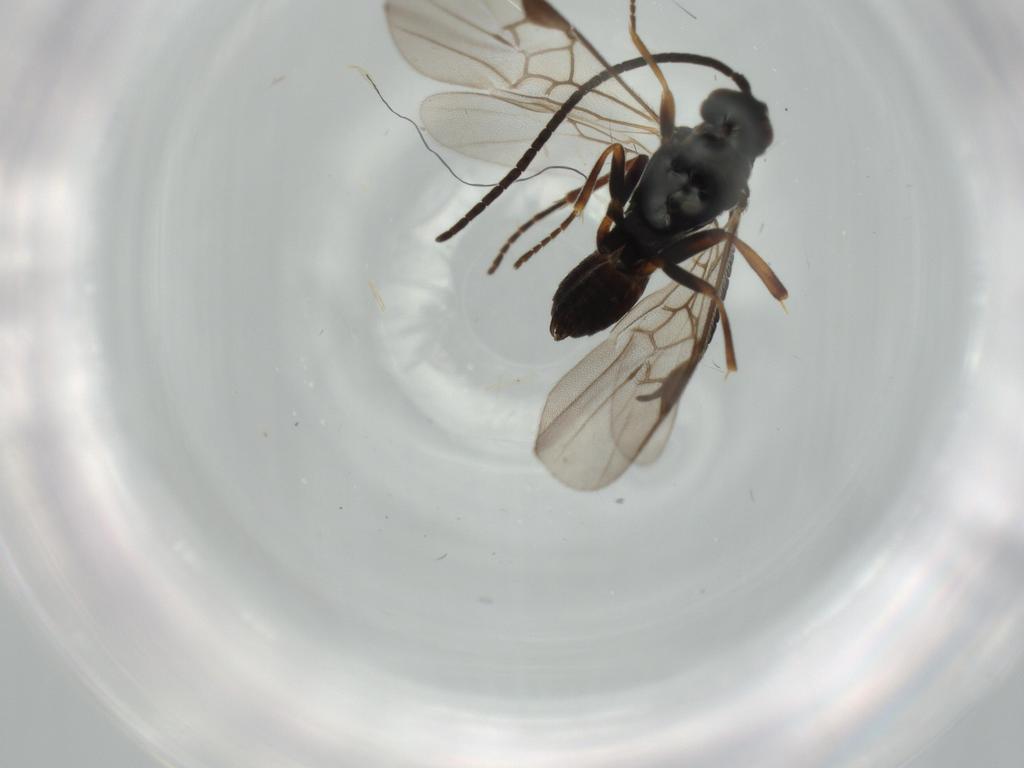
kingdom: Animalia
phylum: Arthropoda
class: Insecta
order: Hymenoptera
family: Braconidae
